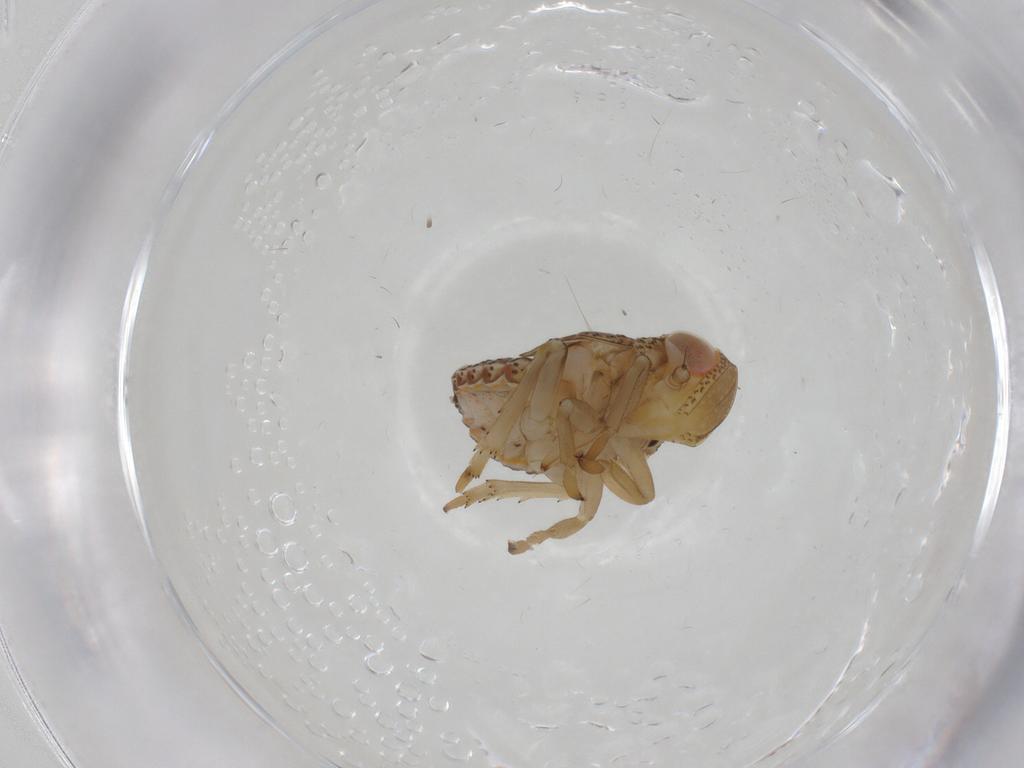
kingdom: Animalia
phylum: Arthropoda
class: Insecta
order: Hemiptera
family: Issidae
